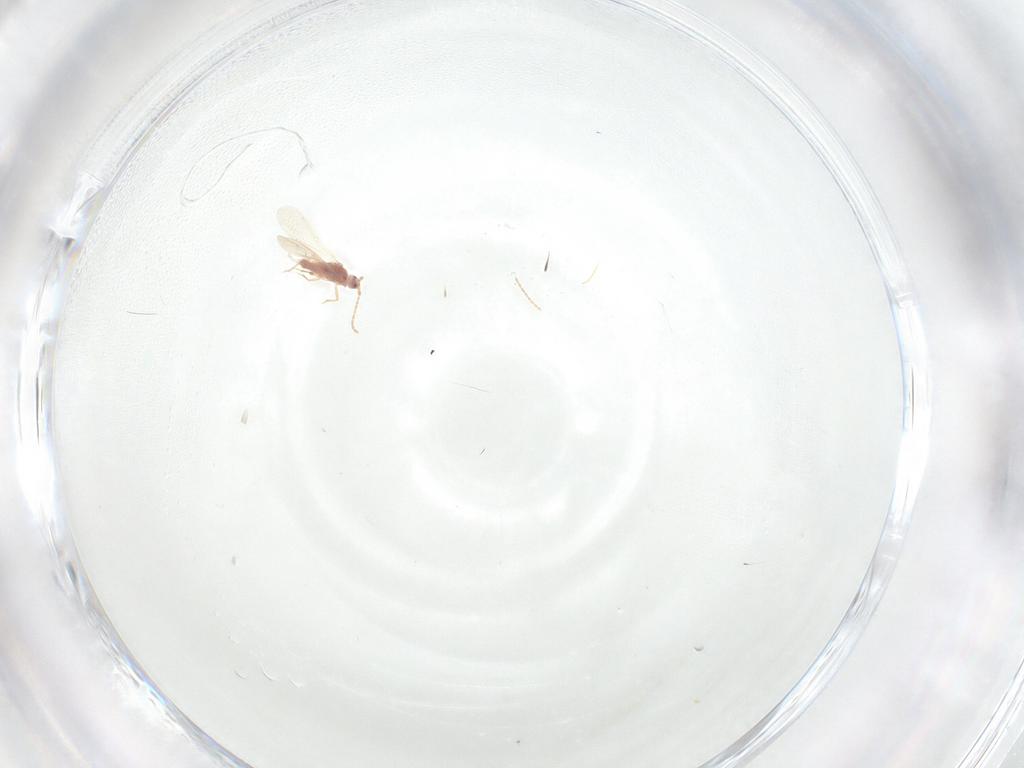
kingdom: Animalia
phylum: Arthropoda
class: Insecta
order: Hemiptera
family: Pseudococcidae
